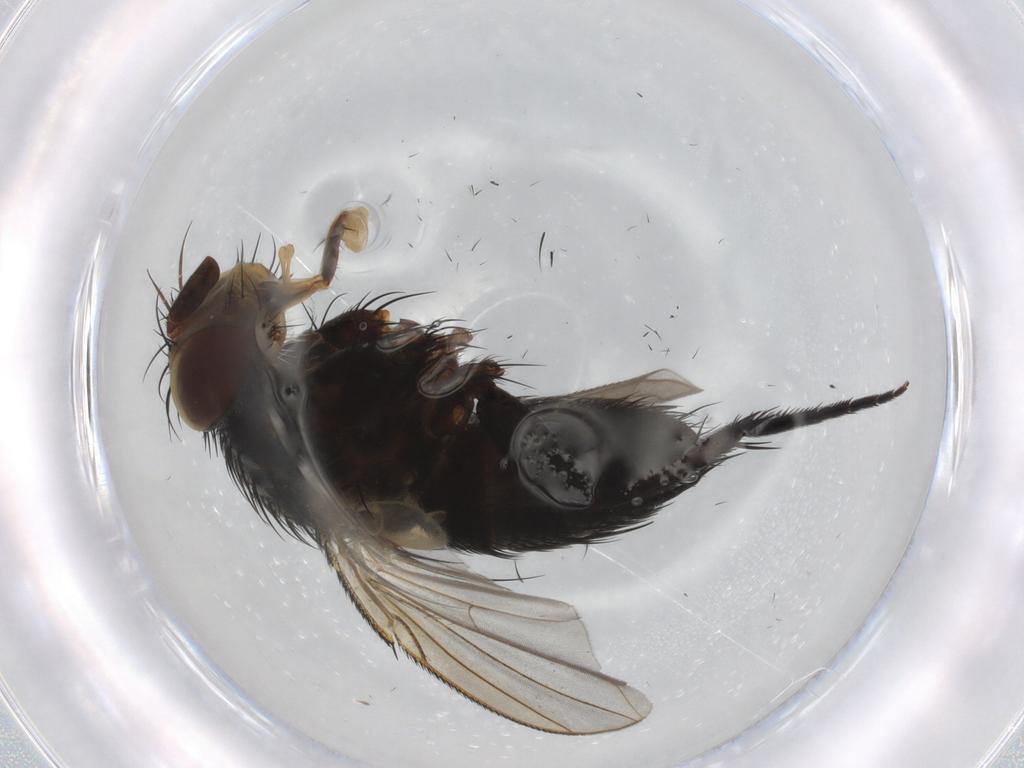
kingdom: Animalia
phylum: Arthropoda
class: Insecta
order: Diptera
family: Tachinidae
